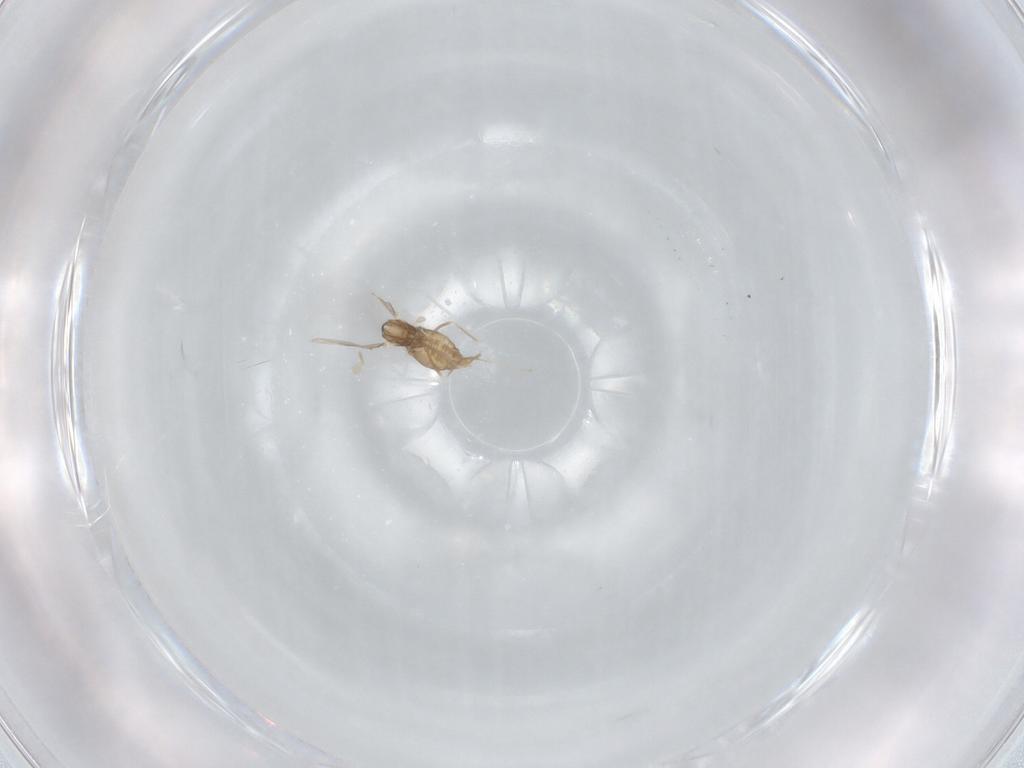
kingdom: Animalia
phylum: Arthropoda
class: Insecta
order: Diptera
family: Cecidomyiidae
